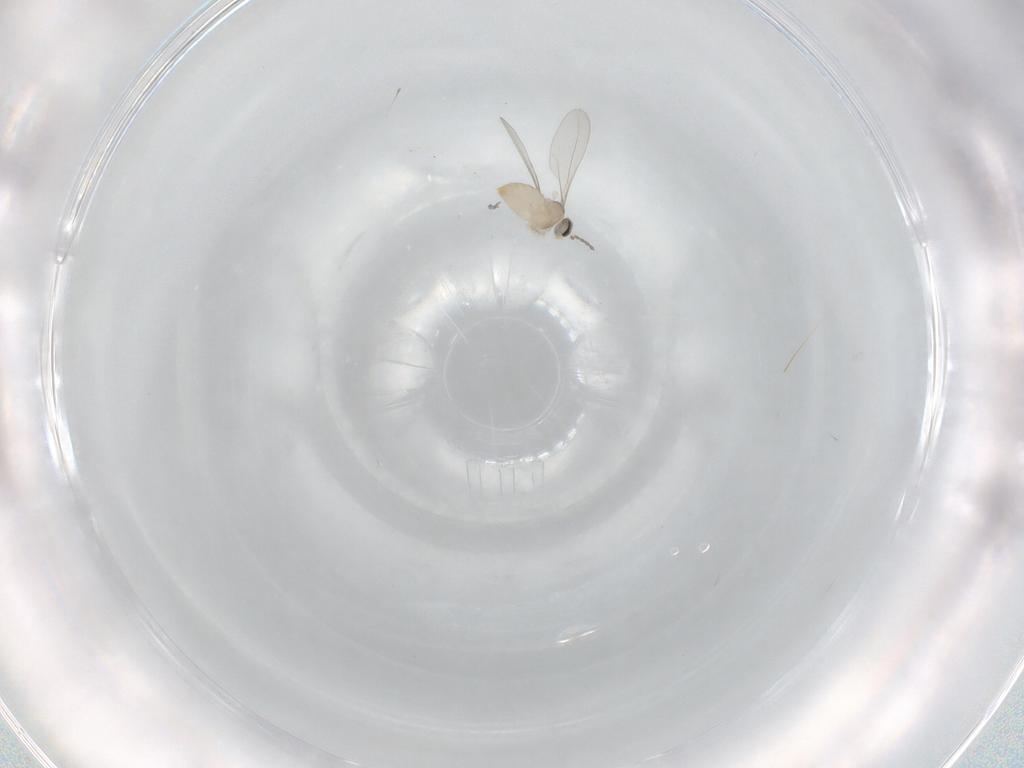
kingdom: Animalia
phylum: Arthropoda
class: Insecta
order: Diptera
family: Cecidomyiidae
